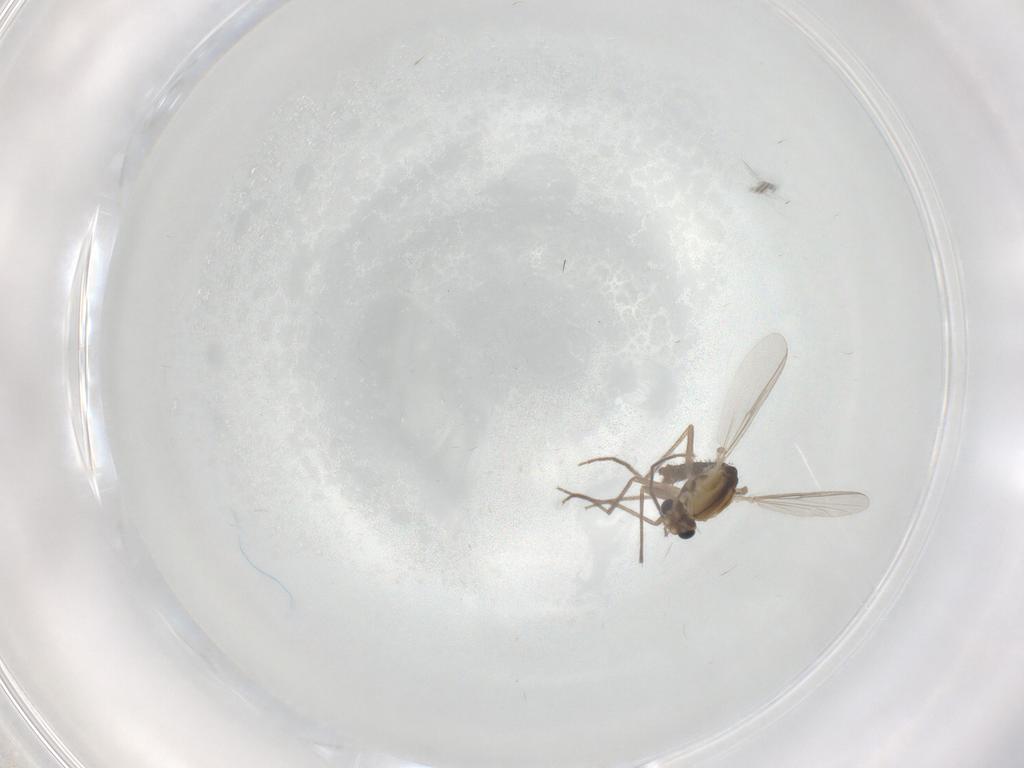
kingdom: Animalia
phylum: Arthropoda
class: Insecta
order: Diptera
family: Chironomidae
